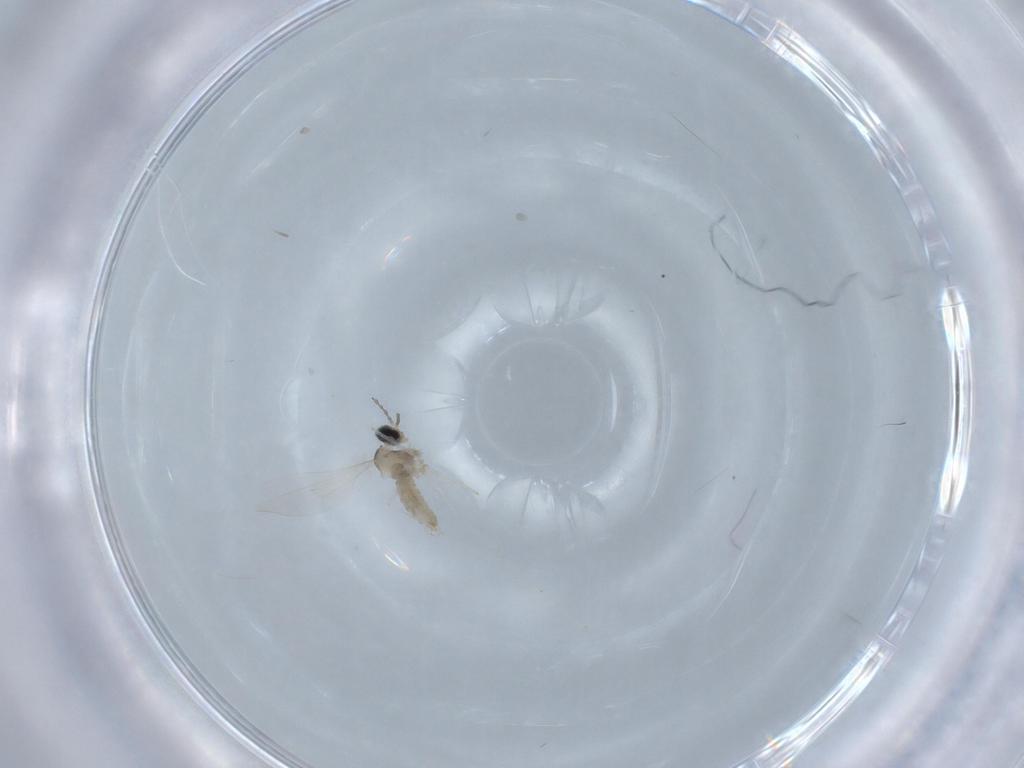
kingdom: Animalia
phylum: Arthropoda
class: Insecta
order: Diptera
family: Cecidomyiidae
